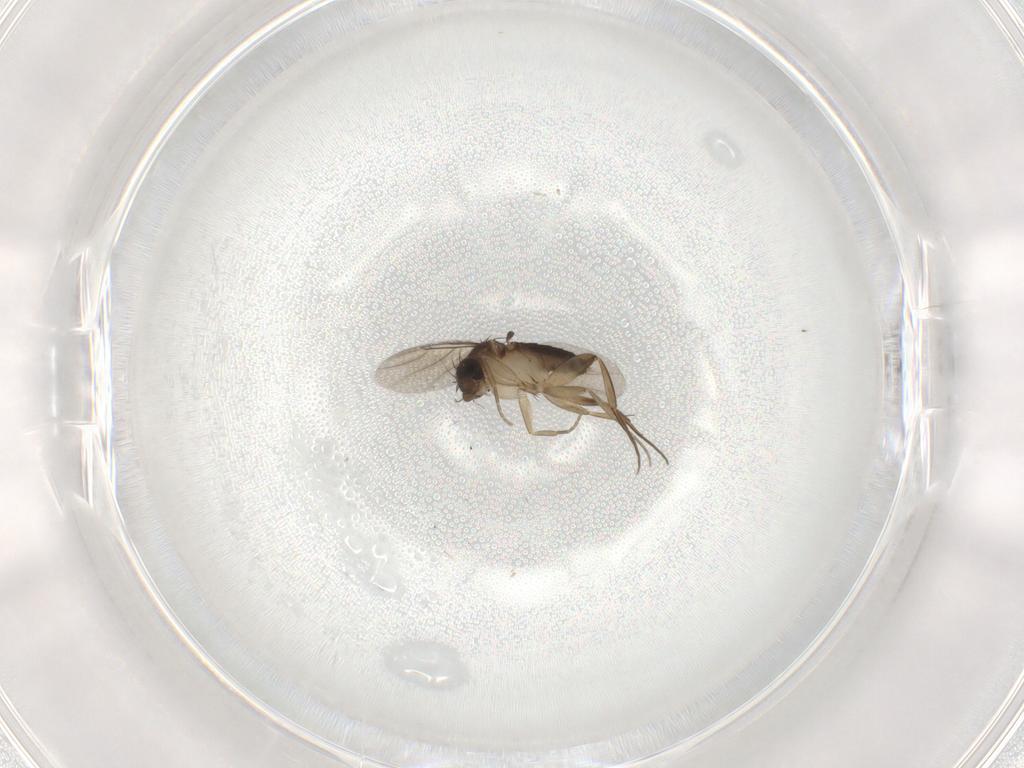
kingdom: Animalia
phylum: Arthropoda
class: Insecta
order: Diptera
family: Phoridae
